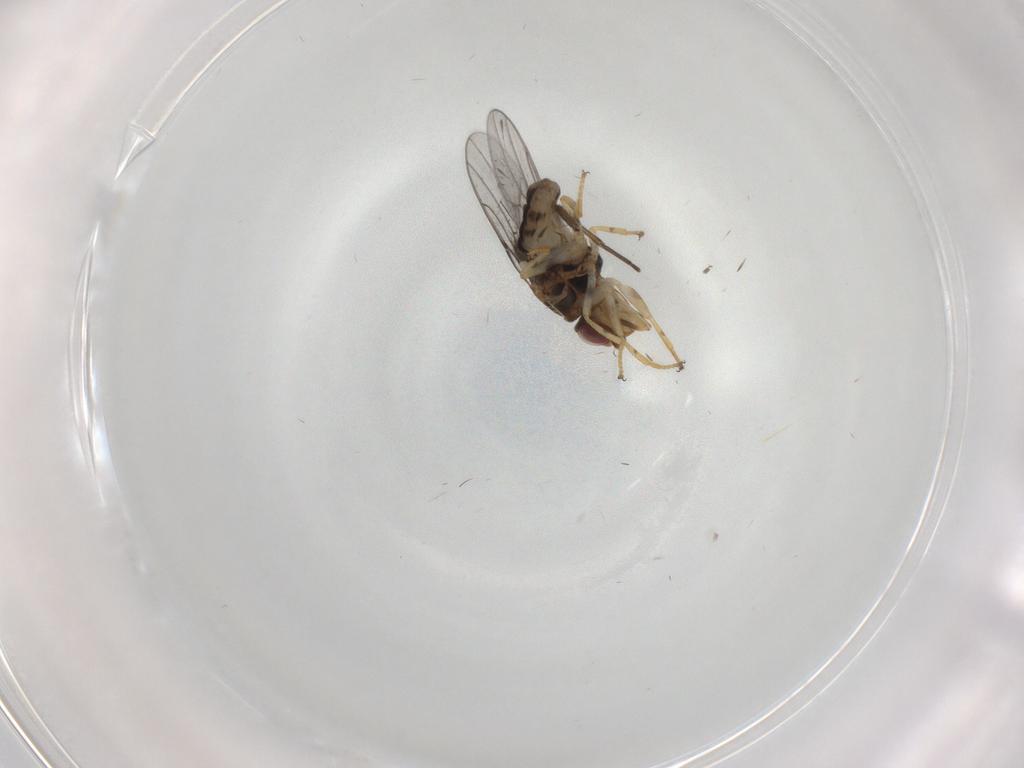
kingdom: Animalia
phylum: Arthropoda
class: Insecta
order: Diptera
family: Chloropidae
